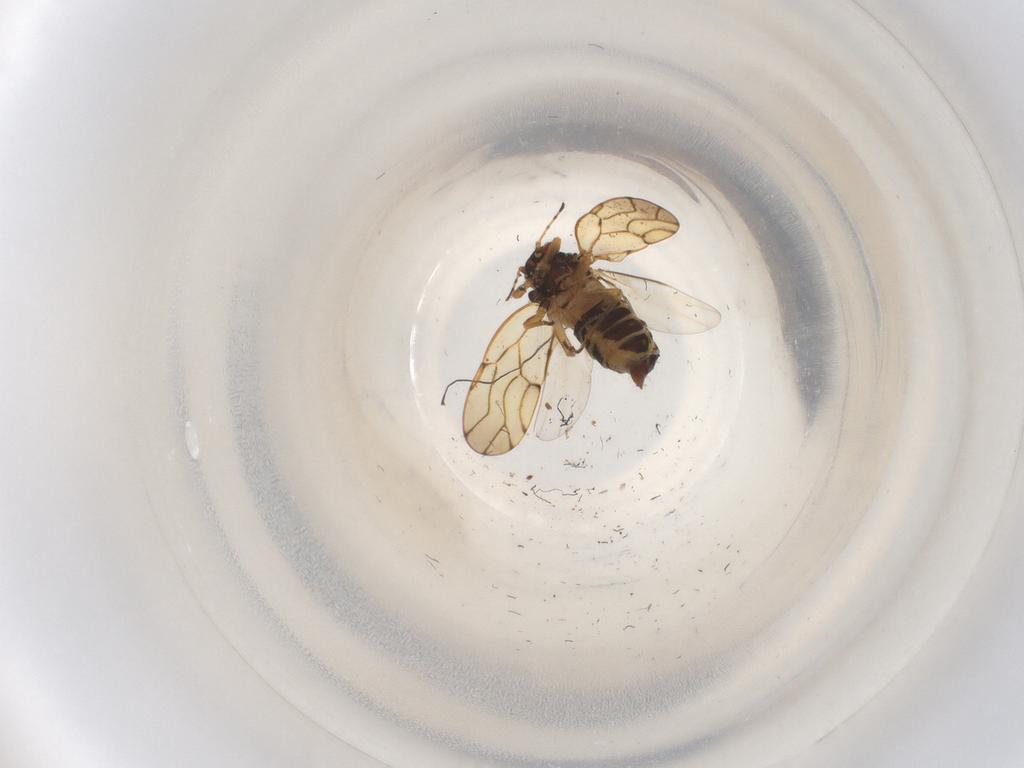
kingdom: Animalia
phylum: Arthropoda
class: Insecta
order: Diptera
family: Cecidomyiidae
